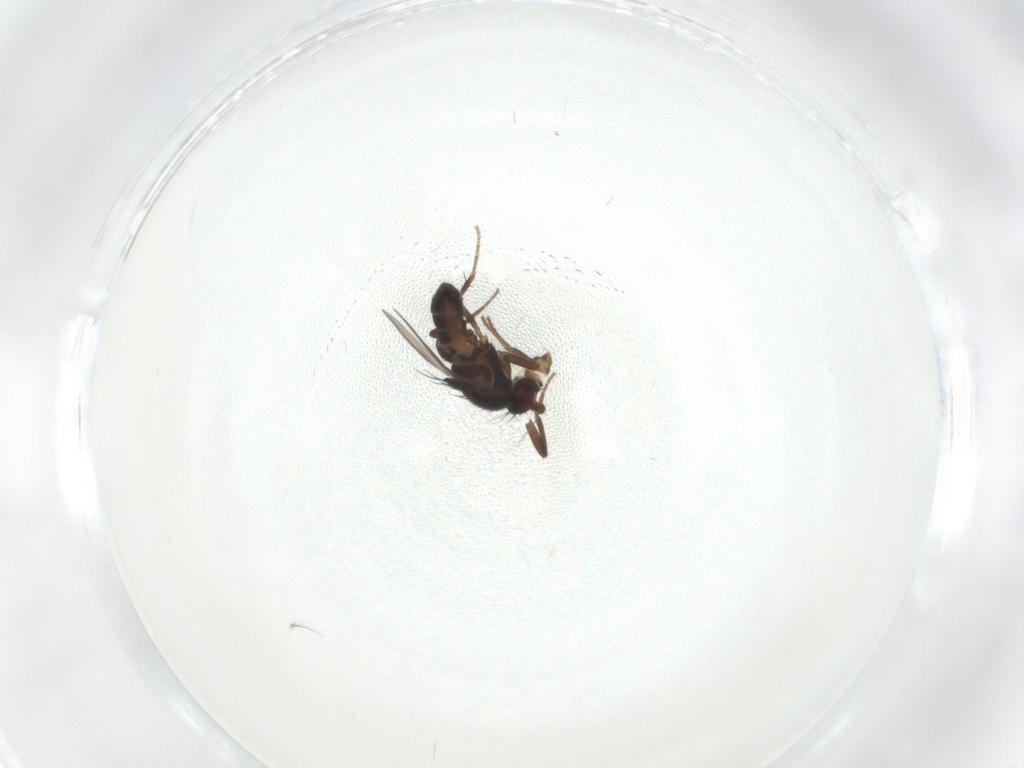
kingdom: Animalia
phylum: Arthropoda
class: Insecta
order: Diptera
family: Sphaeroceridae
